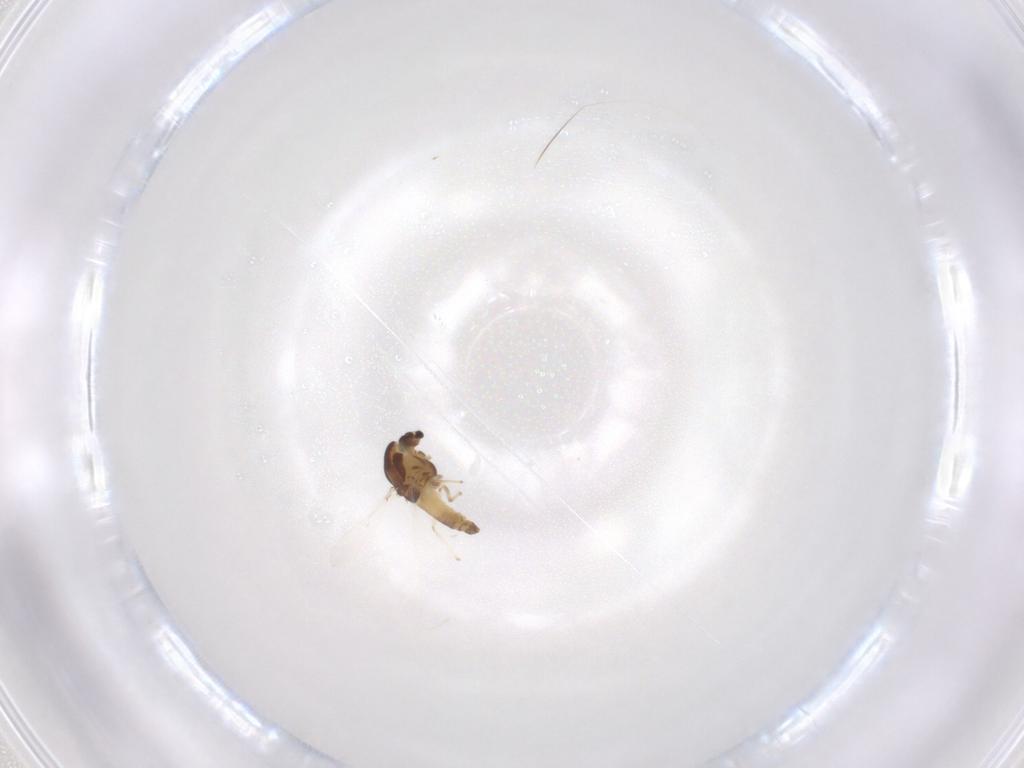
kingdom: Animalia
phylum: Arthropoda
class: Insecta
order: Diptera
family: Cecidomyiidae
